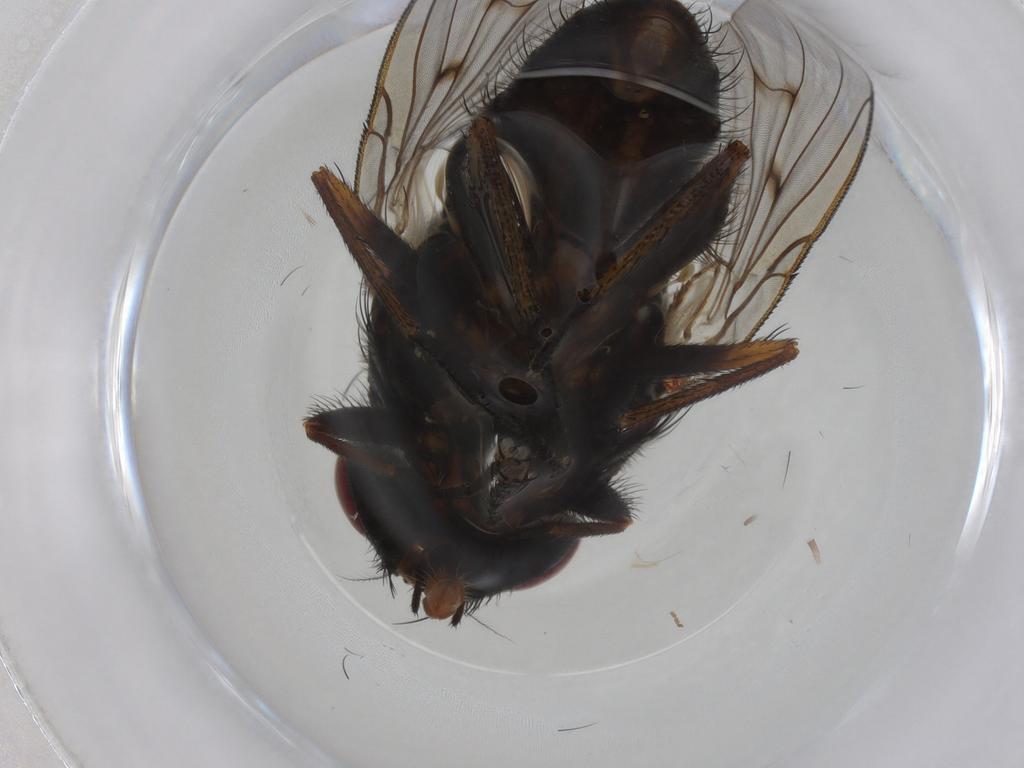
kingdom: Animalia
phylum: Arthropoda
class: Insecta
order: Diptera
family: Muscidae
